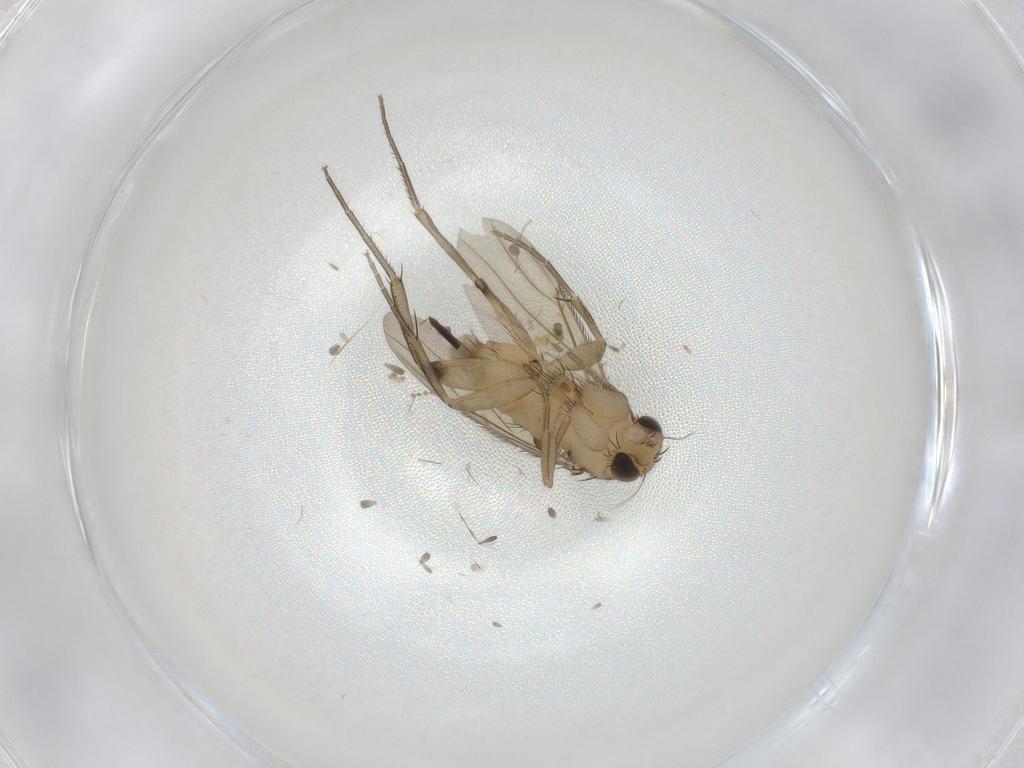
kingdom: Animalia
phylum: Arthropoda
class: Insecta
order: Diptera
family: Phoridae
